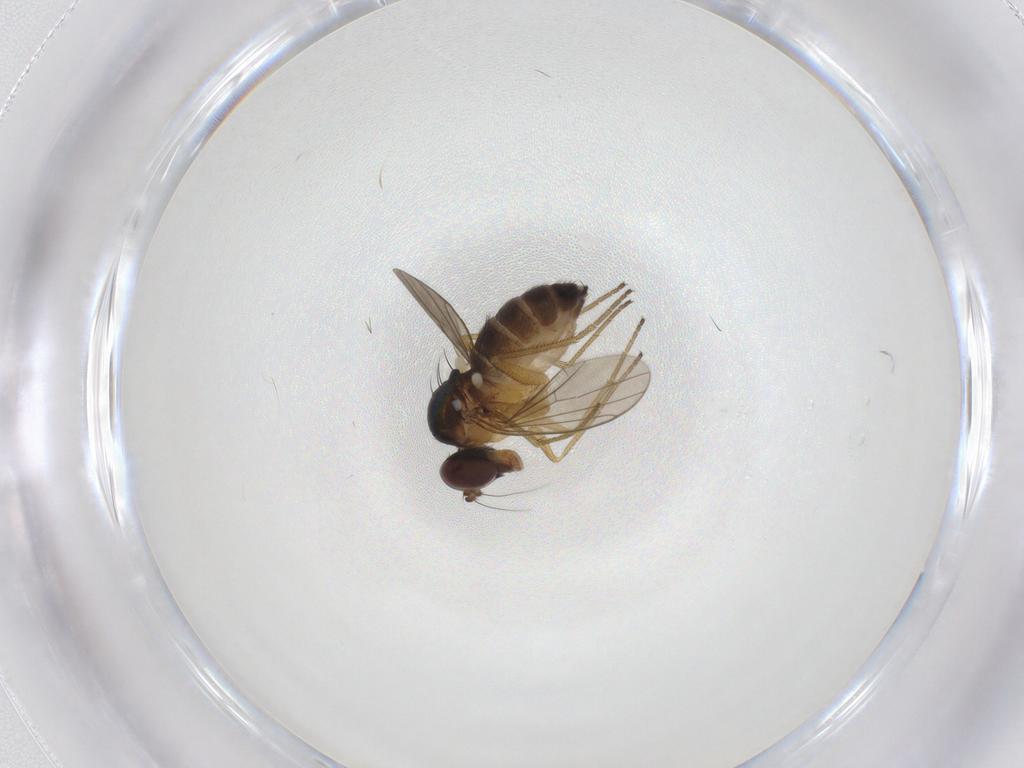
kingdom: Animalia
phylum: Arthropoda
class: Insecta
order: Diptera
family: Dolichopodidae
